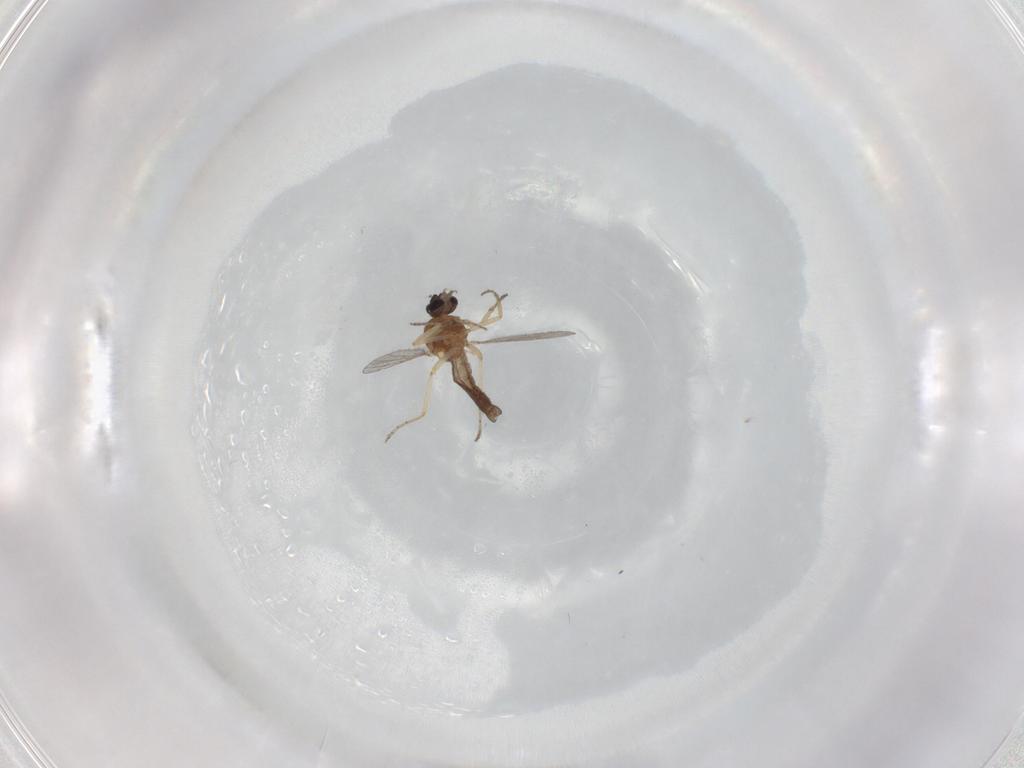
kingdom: Animalia
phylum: Arthropoda
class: Insecta
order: Diptera
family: Ceratopogonidae
